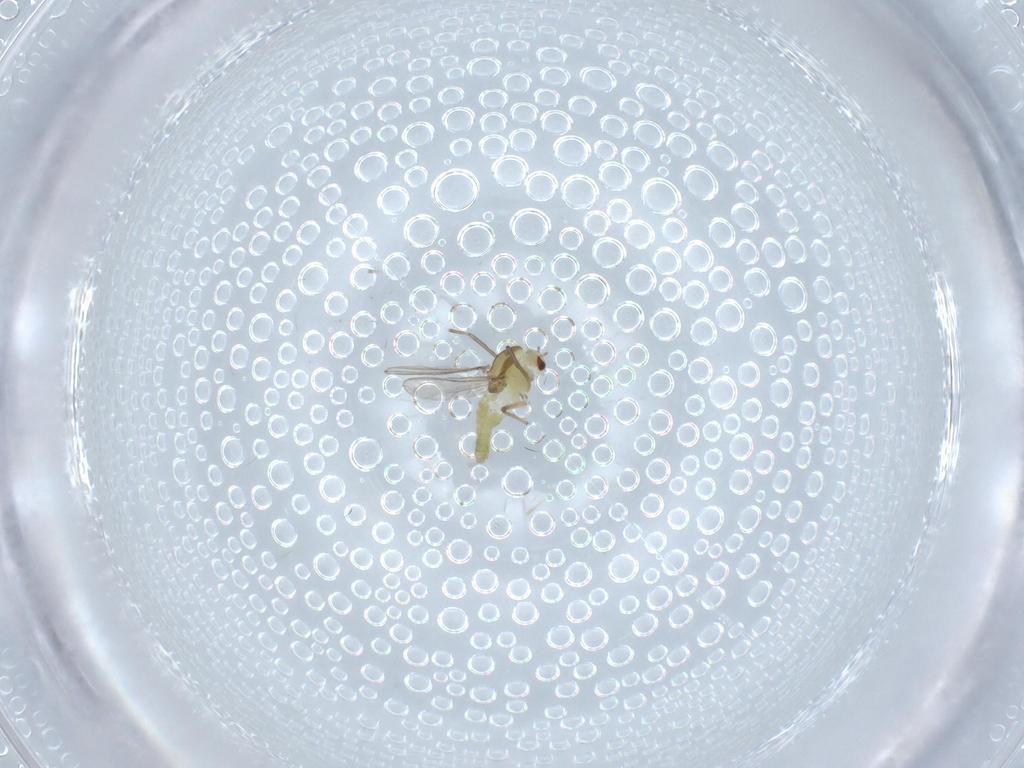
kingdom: Animalia
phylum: Arthropoda
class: Insecta
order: Diptera
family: Chironomidae
